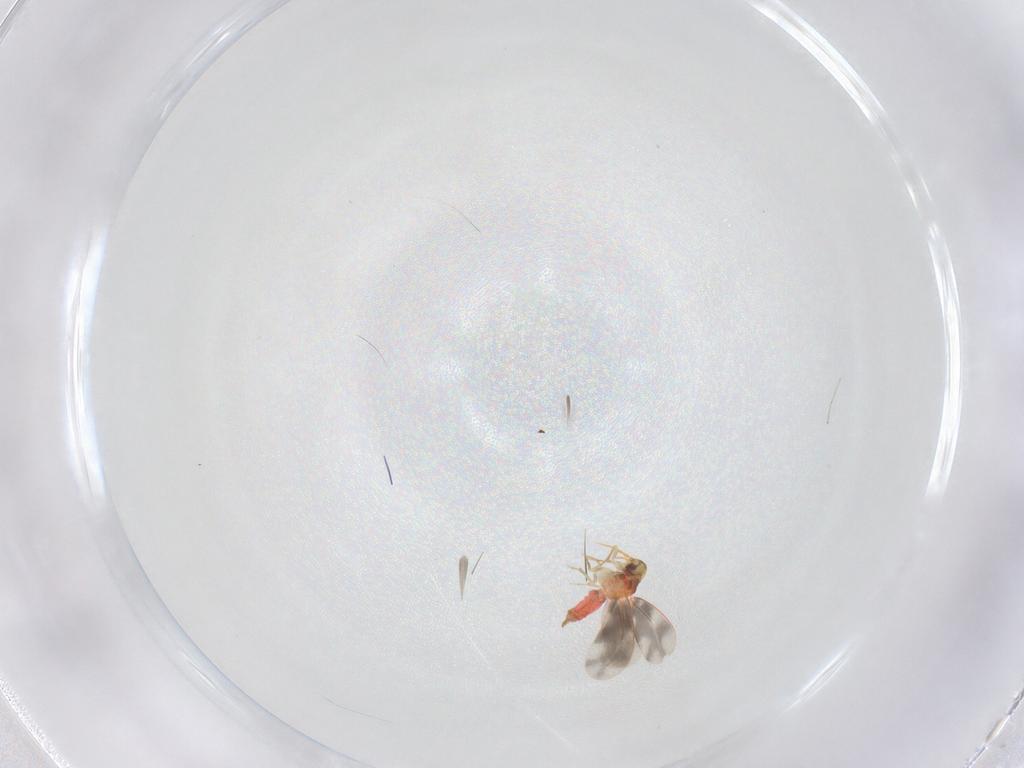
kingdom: Animalia
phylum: Arthropoda
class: Insecta
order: Hemiptera
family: Aleyrodidae
